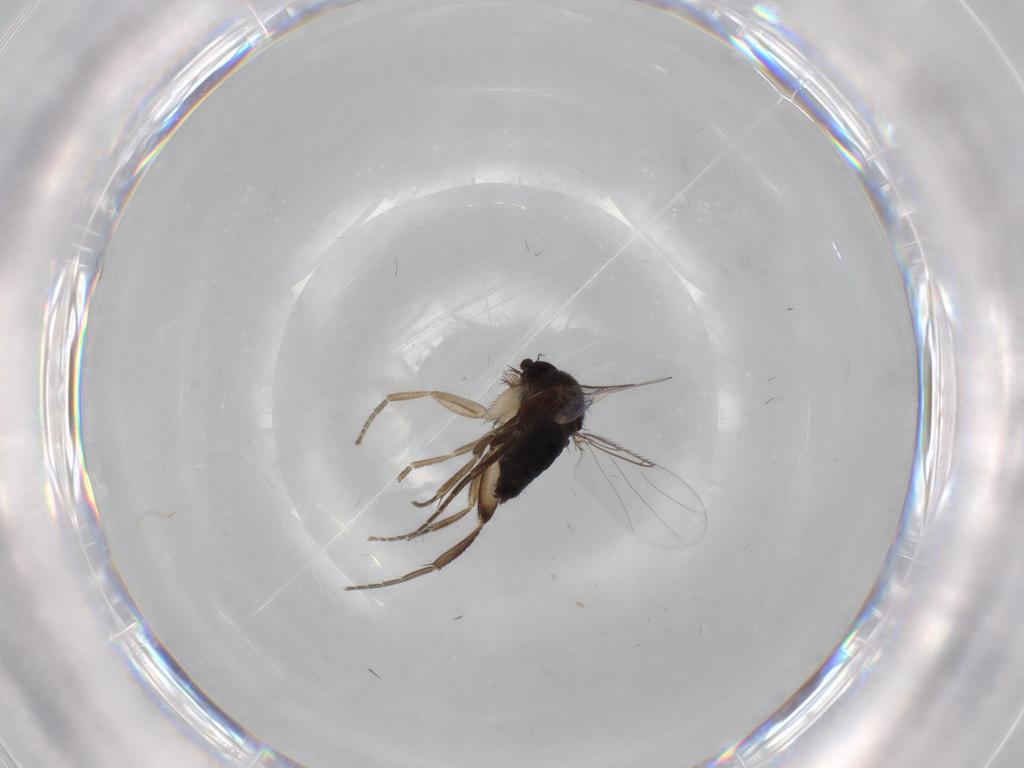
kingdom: Animalia
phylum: Arthropoda
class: Insecta
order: Diptera
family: Phoridae
